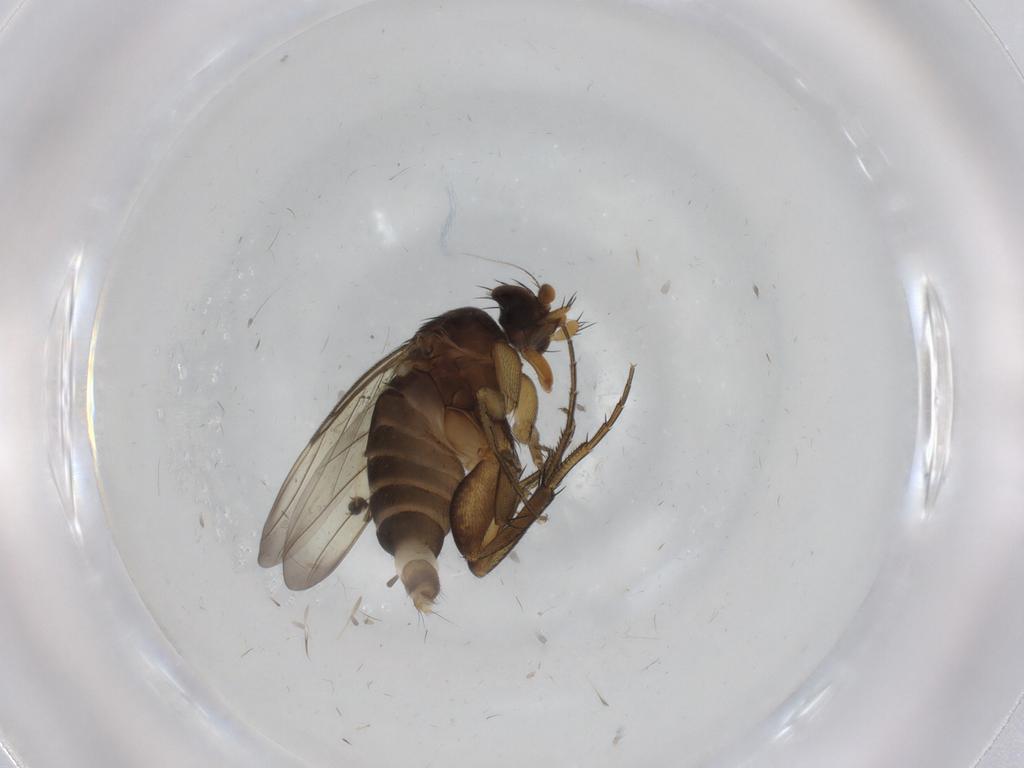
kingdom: Animalia
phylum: Arthropoda
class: Insecta
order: Diptera
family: Phoridae
